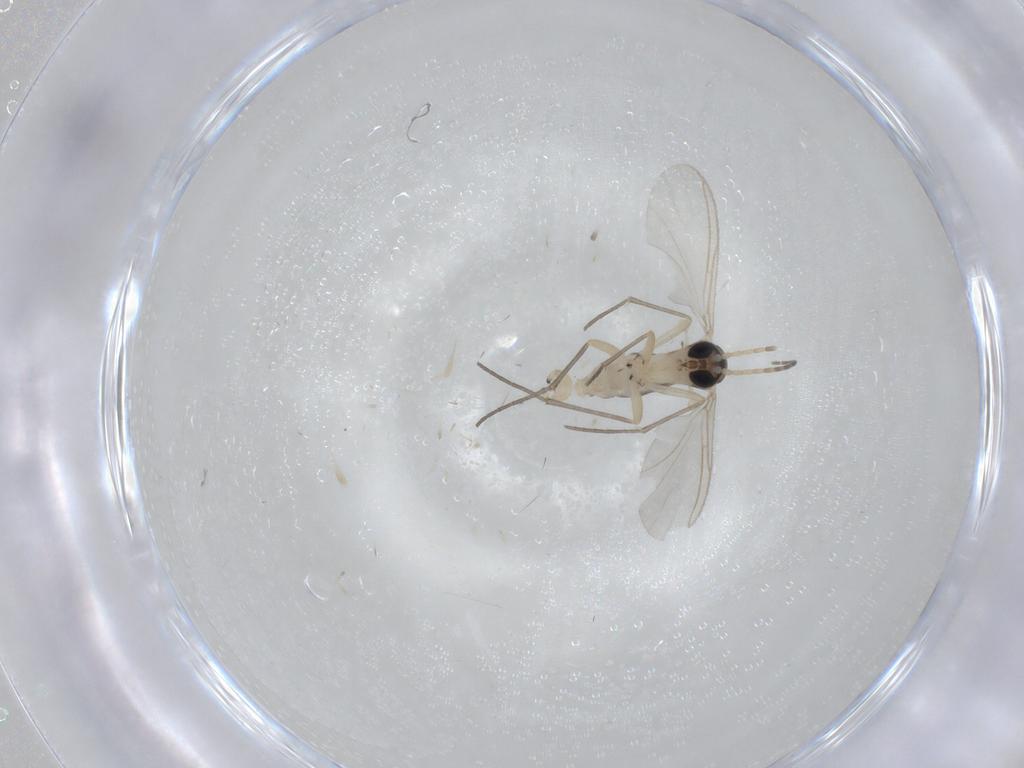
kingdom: Animalia
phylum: Arthropoda
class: Insecta
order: Diptera
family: Sciaridae
